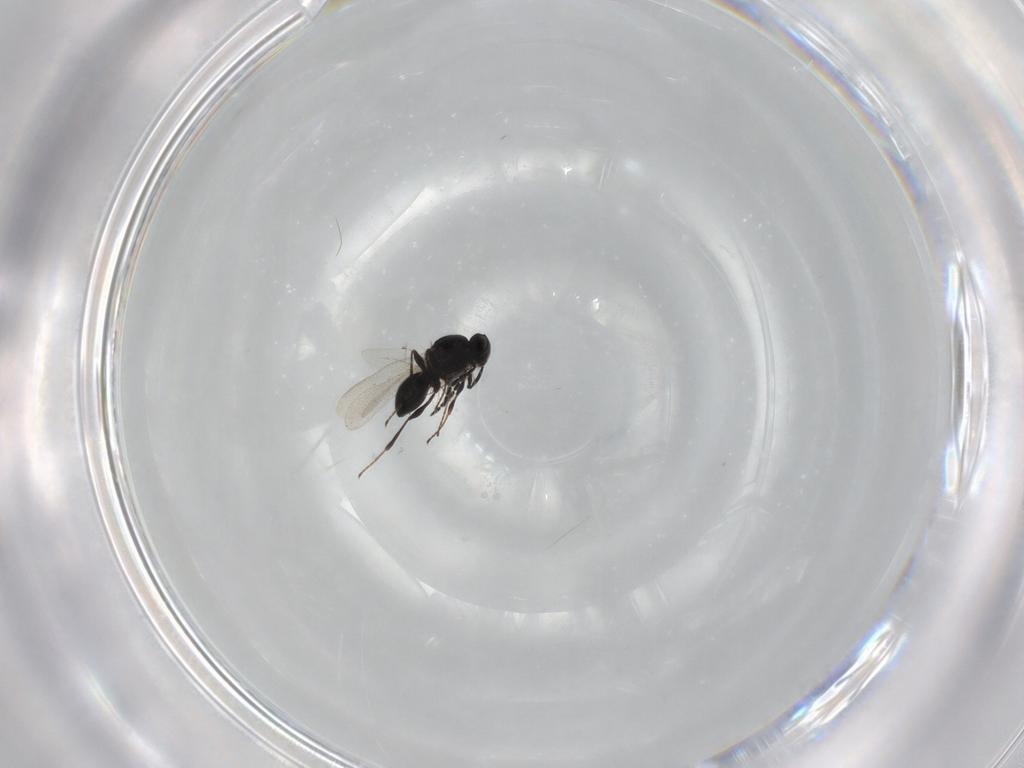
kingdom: Animalia
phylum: Arthropoda
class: Insecta
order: Hymenoptera
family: Platygastridae
